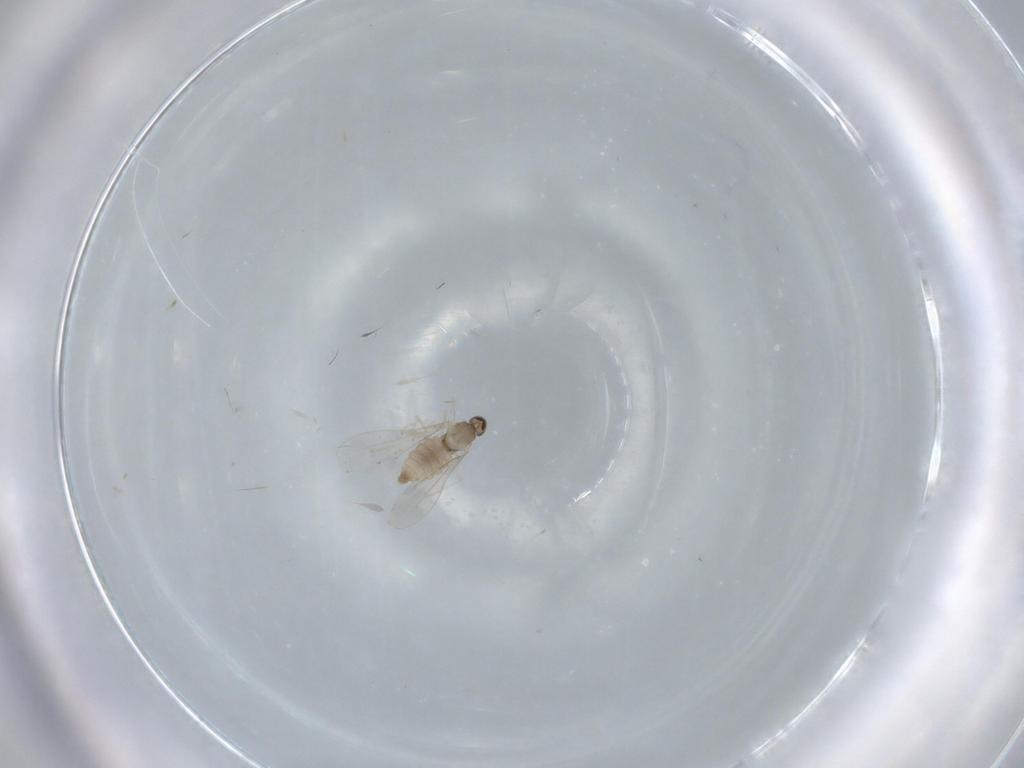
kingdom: Animalia
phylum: Arthropoda
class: Insecta
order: Diptera
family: Cecidomyiidae
